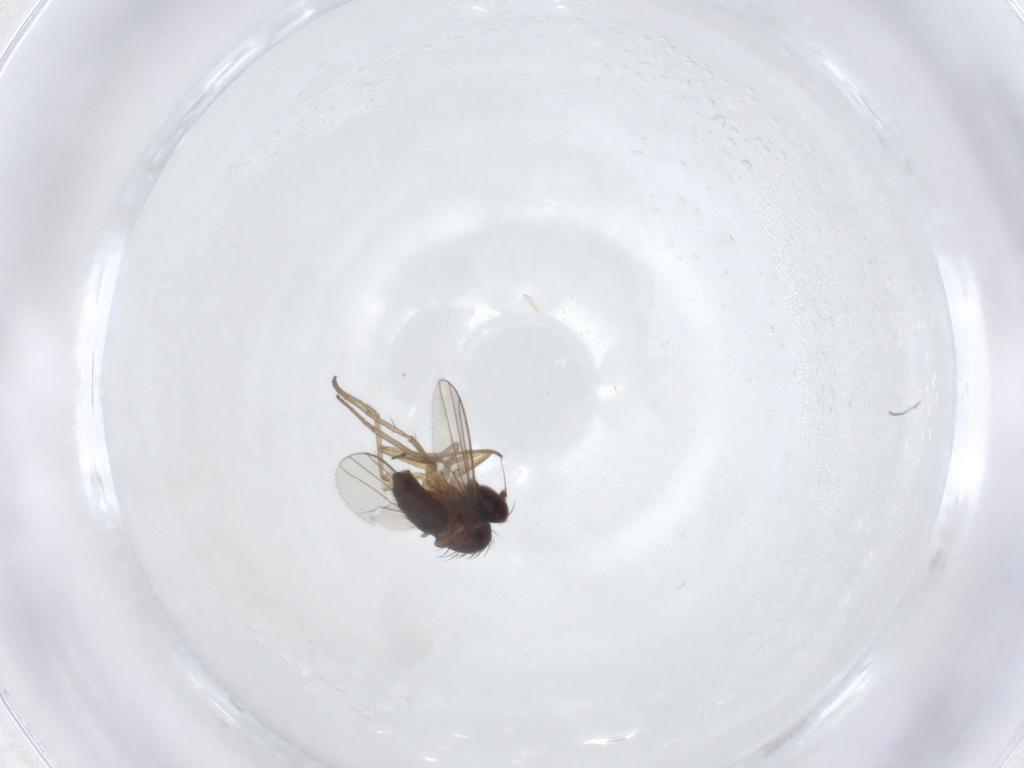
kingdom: Animalia
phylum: Arthropoda
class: Insecta
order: Diptera
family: Dolichopodidae
